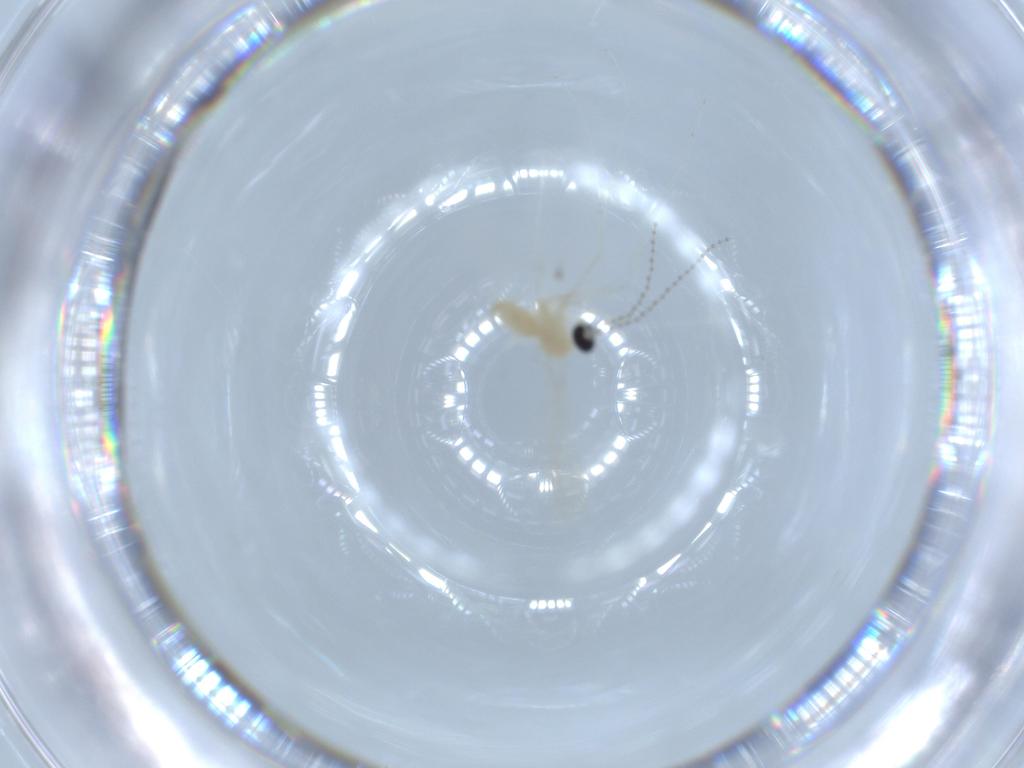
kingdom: Animalia
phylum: Arthropoda
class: Insecta
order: Diptera
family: Cecidomyiidae
